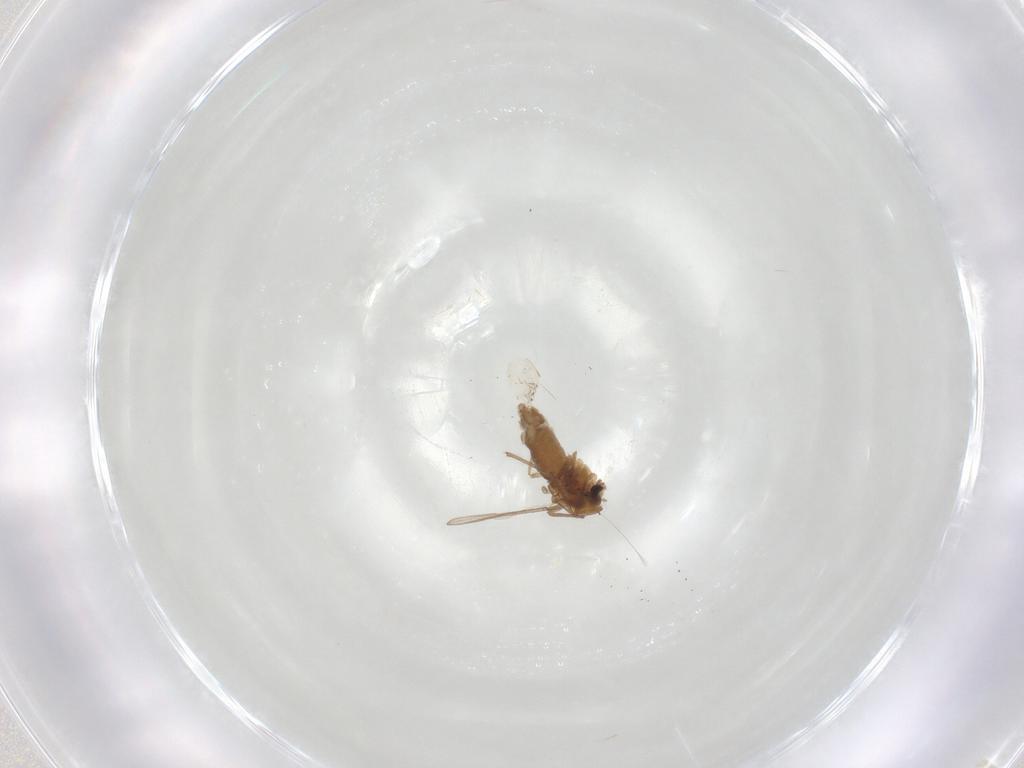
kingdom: Animalia
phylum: Arthropoda
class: Insecta
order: Diptera
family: Chironomidae
